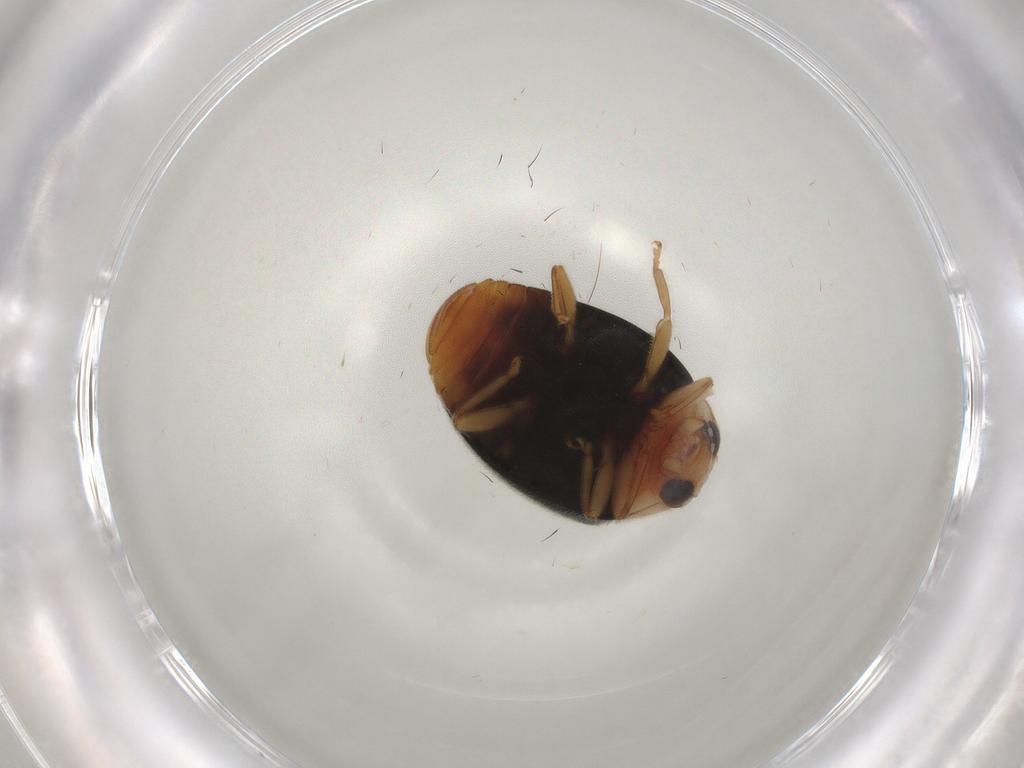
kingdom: Animalia
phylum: Arthropoda
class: Insecta
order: Coleoptera
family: Coccinellidae
